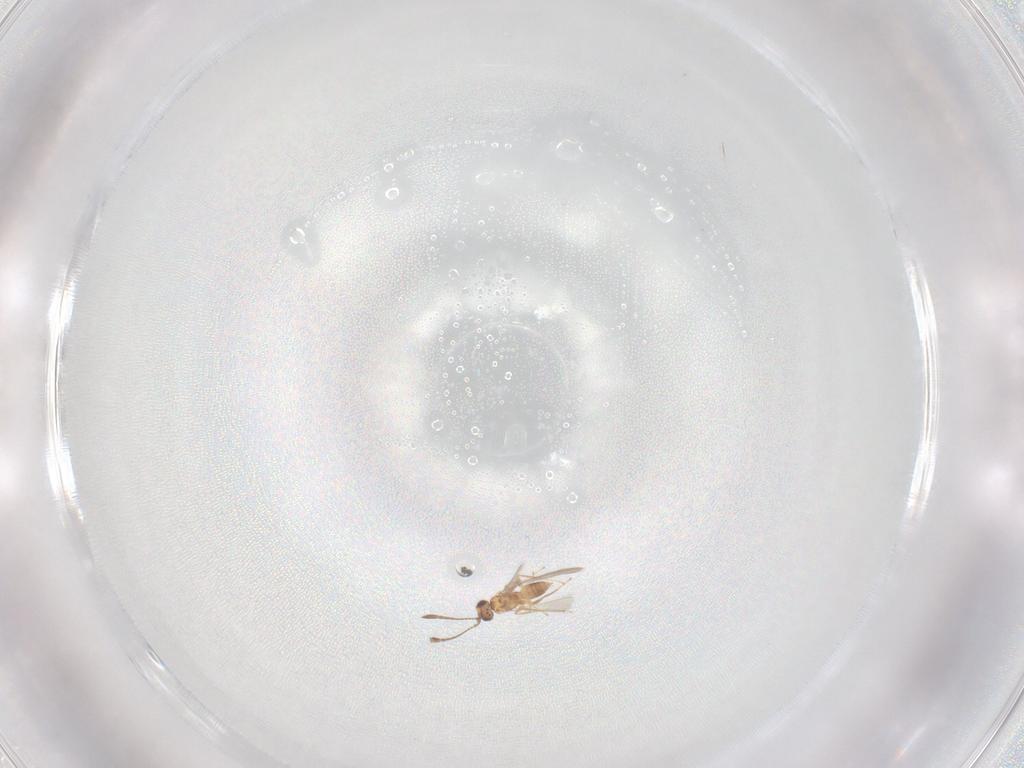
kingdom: Animalia
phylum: Arthropoda
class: Insecta
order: Hymenoptera
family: Mymaridae
